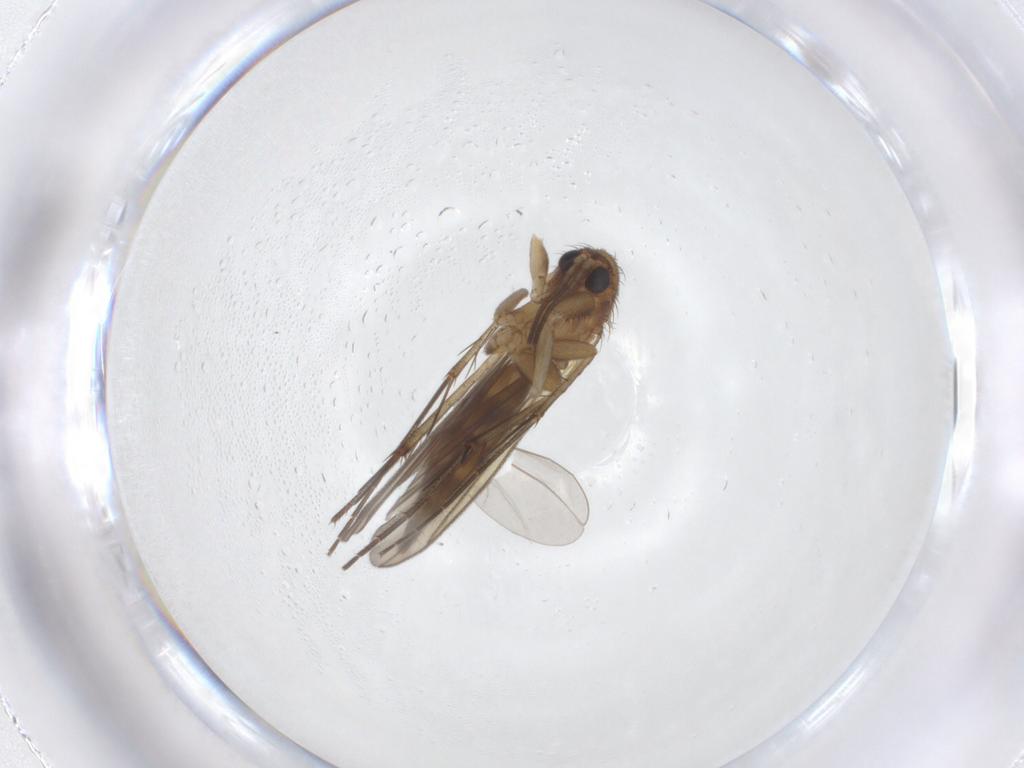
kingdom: Animalia
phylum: Arthropoda
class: Insecta
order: Diptera
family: Mycetophilidae
